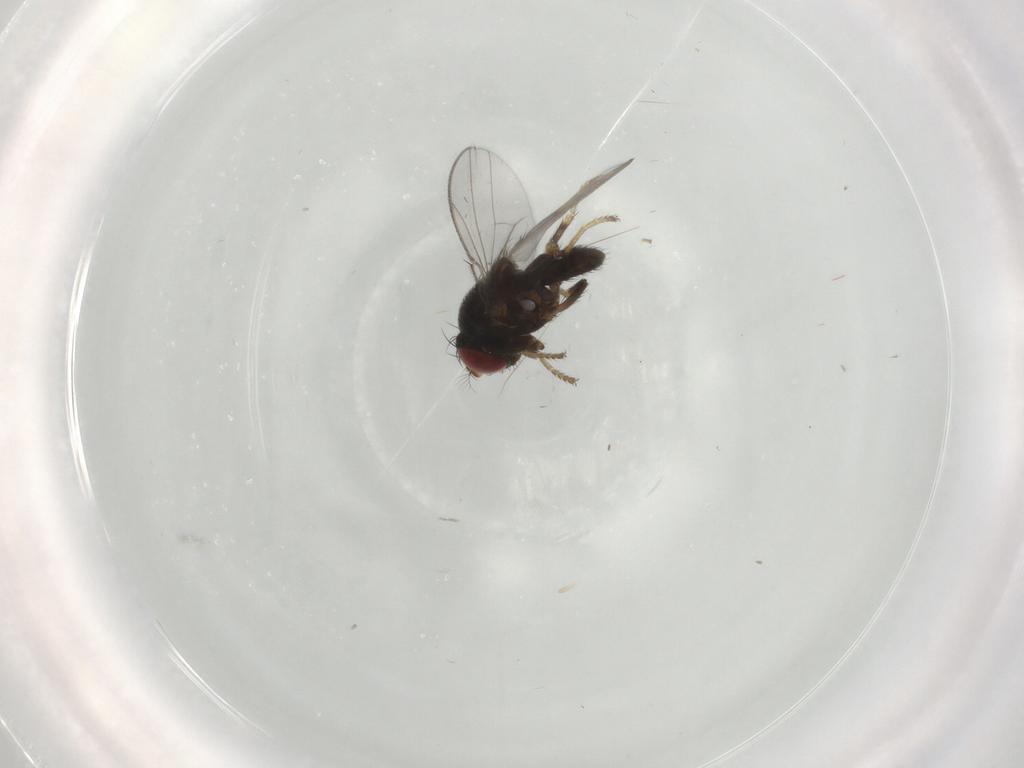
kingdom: Animalia
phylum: Arthropoda
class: Insecta
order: Diptera
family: Ephydridae
